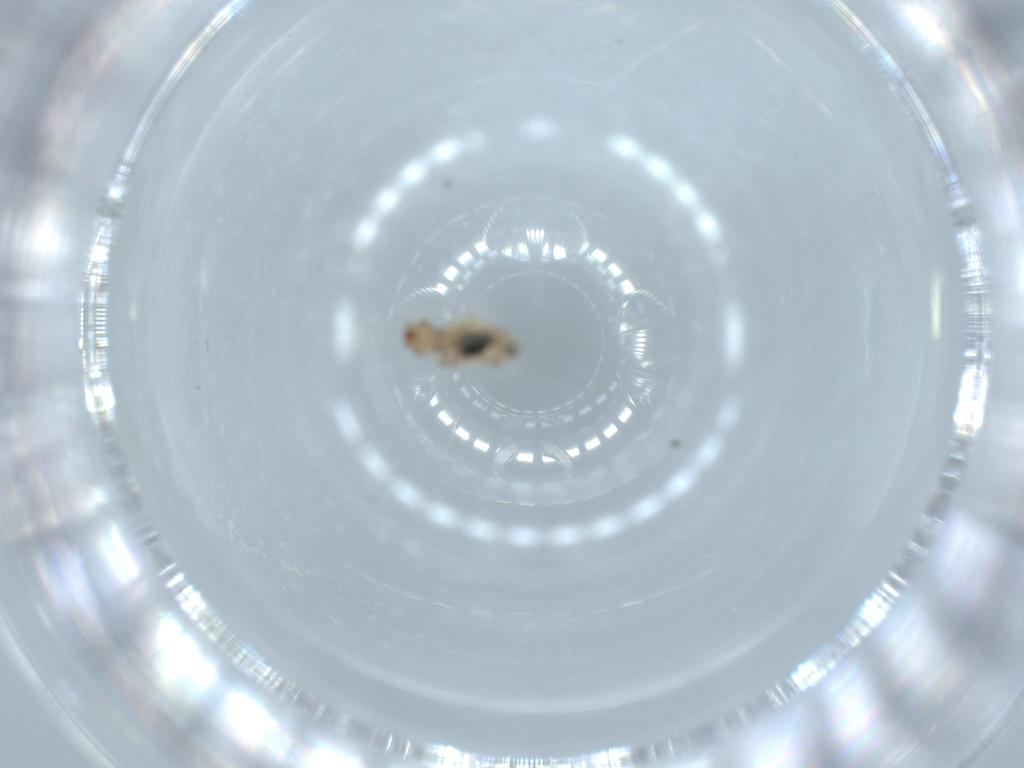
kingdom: Animalia
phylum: Arthropoda
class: Insecta
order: Psocodea
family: Liposcelididae
